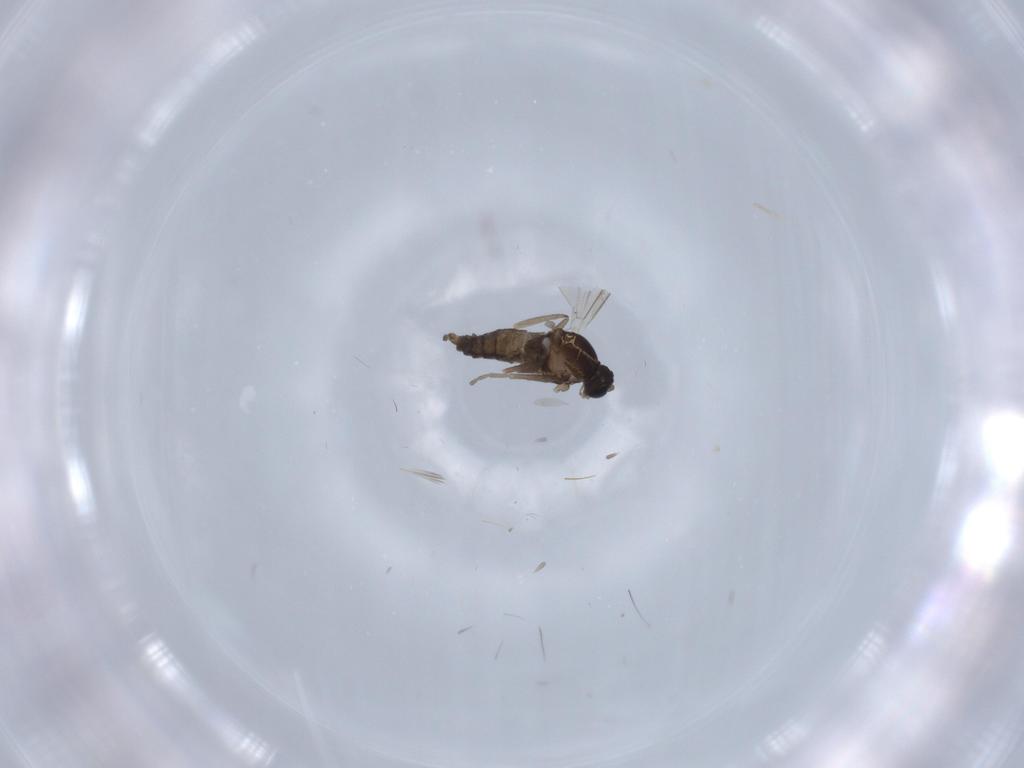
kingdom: Animalia
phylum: Arthropoda
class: Insecta
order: Diptera
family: Cecidomyiidae
